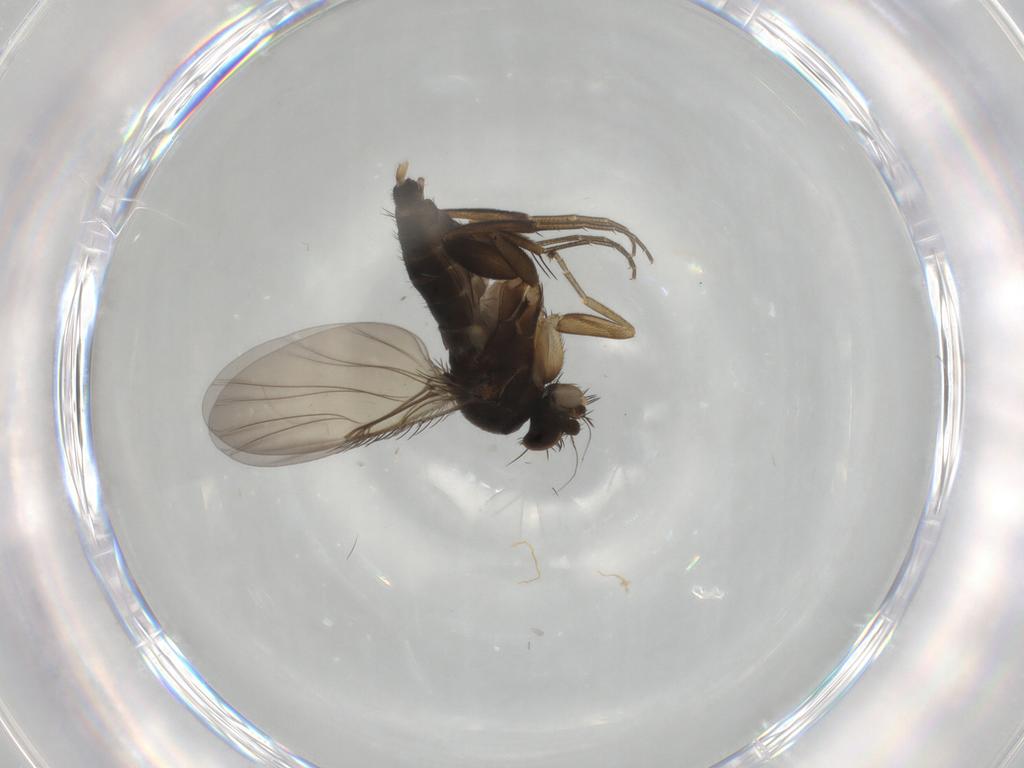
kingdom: Animalia
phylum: Arthropoda
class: Insecta
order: Diptera
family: Phoridae
